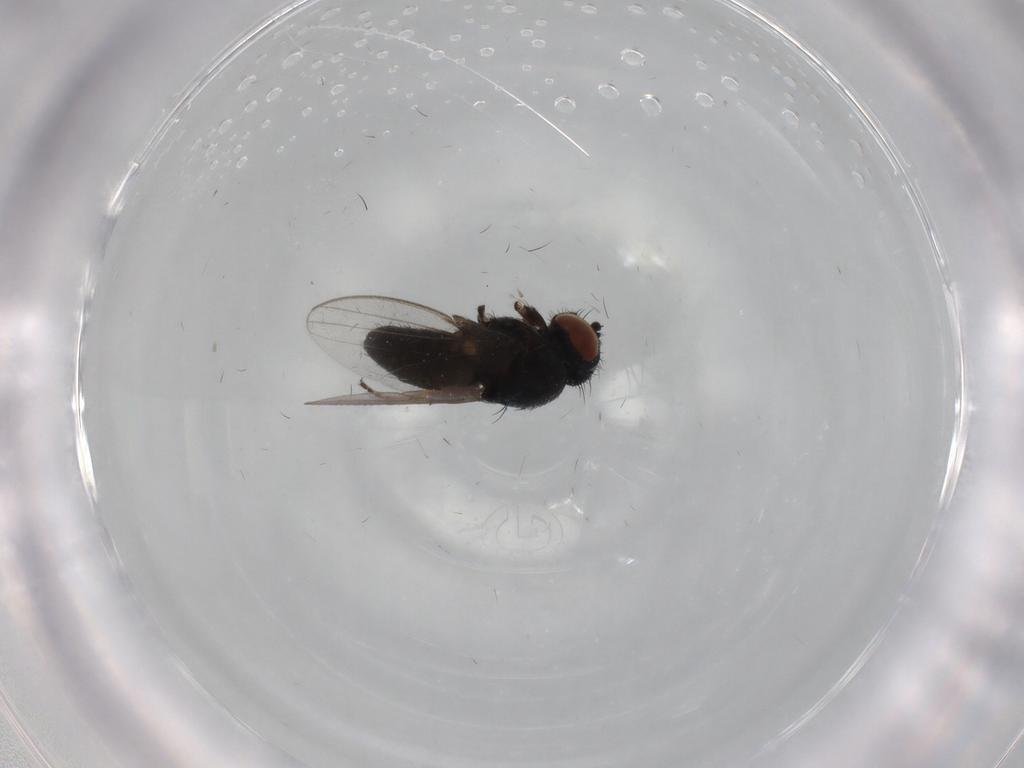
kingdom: Animalia
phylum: Arthropoda
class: Insecta
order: Diptera
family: Milichiidae
